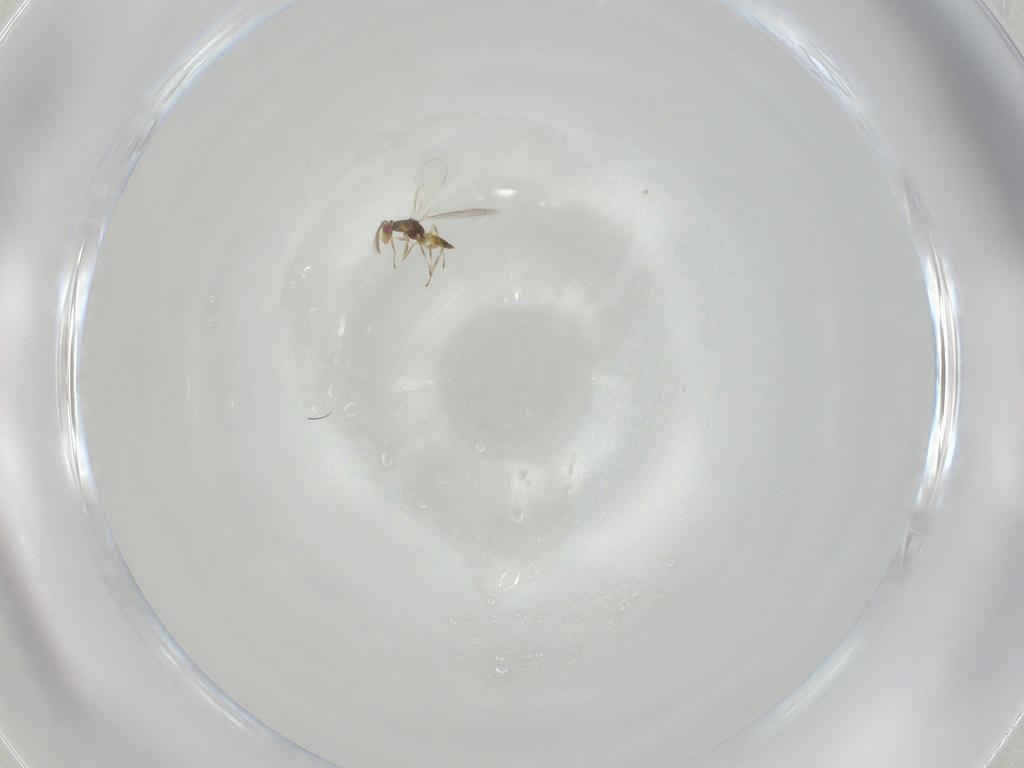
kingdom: Animalia
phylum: Arthropoda
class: Insecta
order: Hymenoptera
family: Eulophidae
